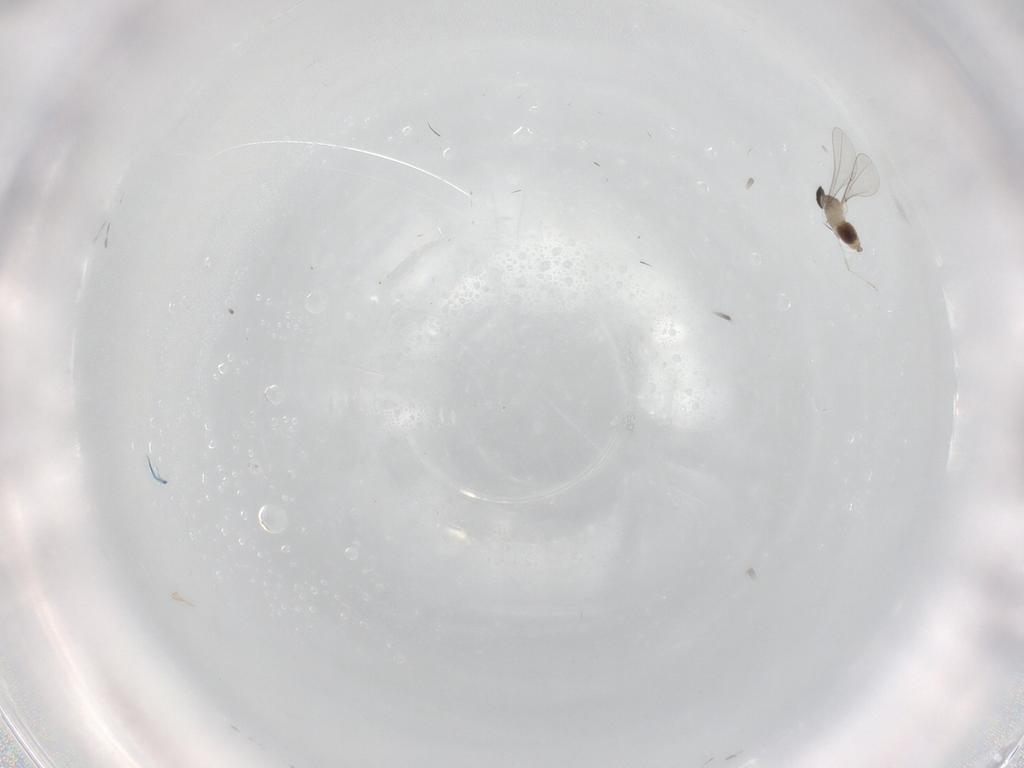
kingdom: Animalia
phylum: Arthropoda
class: Insecta
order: Diptera
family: Cecidomyiidae
